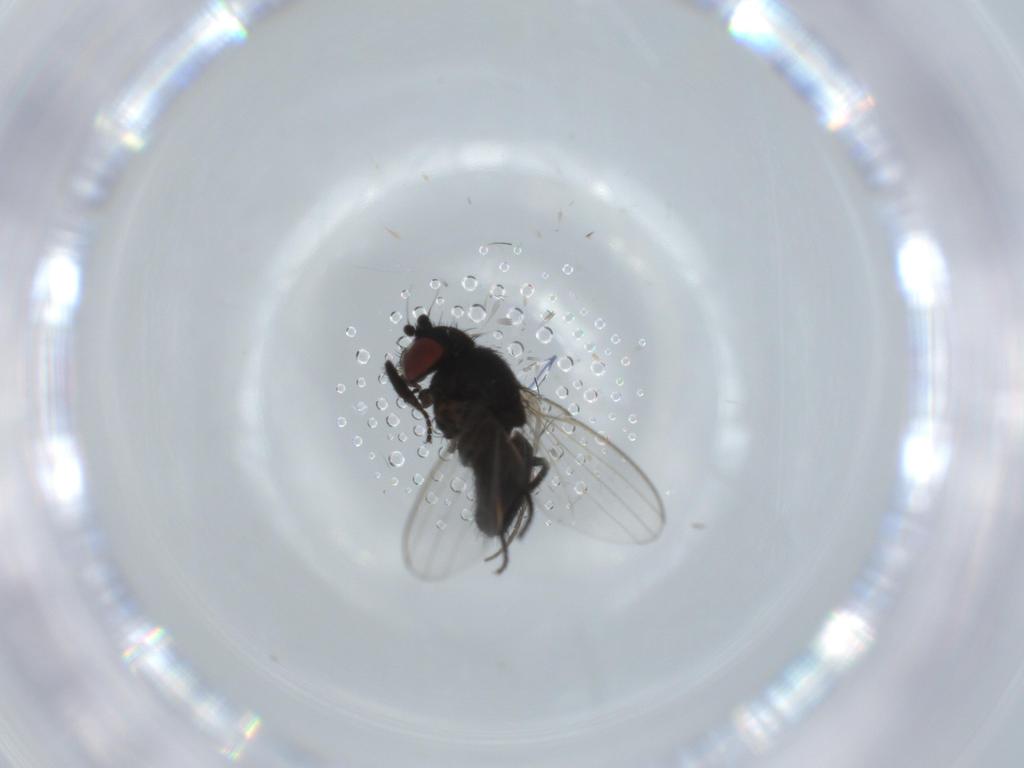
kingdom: Animalia
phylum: Arthropoda
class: Insecta
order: Diptera
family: Milichiidae
